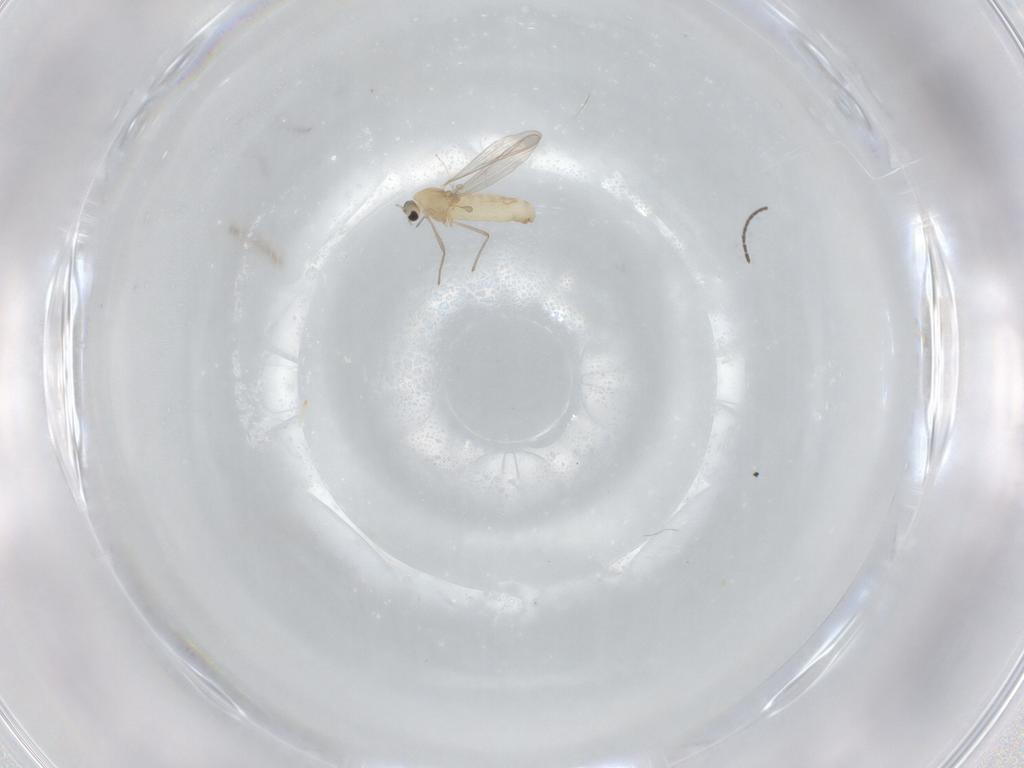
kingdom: Animalia
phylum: Arthropoda
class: Insecta
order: Diptera
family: Chironomidae
